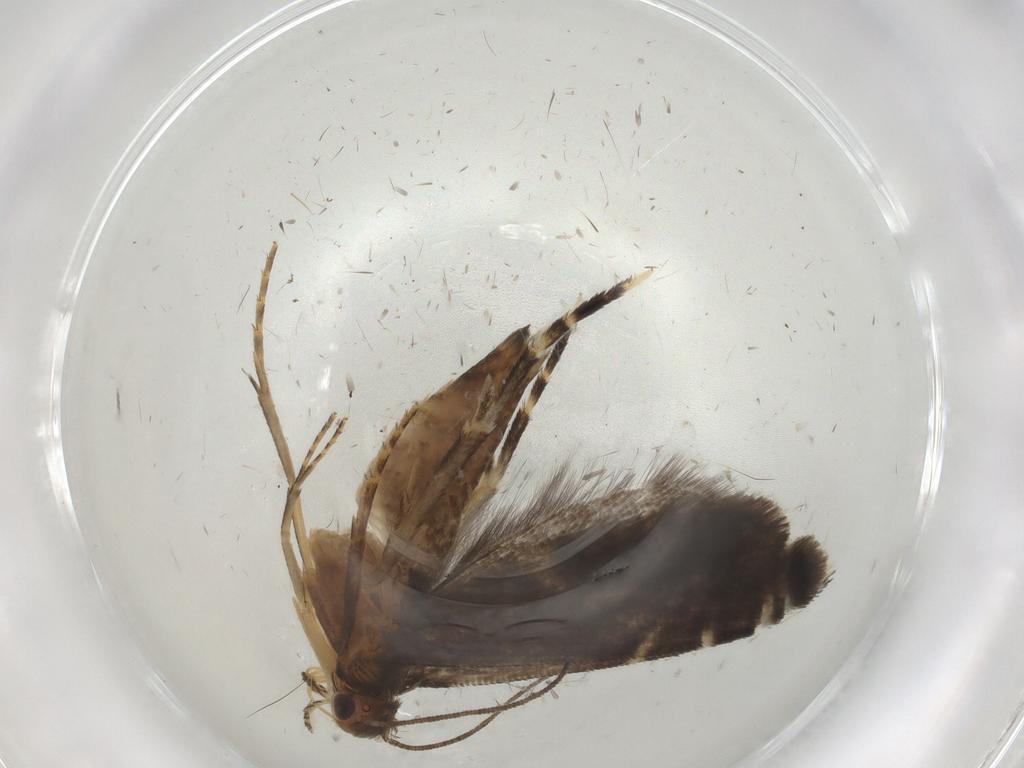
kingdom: Animalia
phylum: Arthropoda
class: Insecta
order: Lepidoptera
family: Glyphipterigidae
